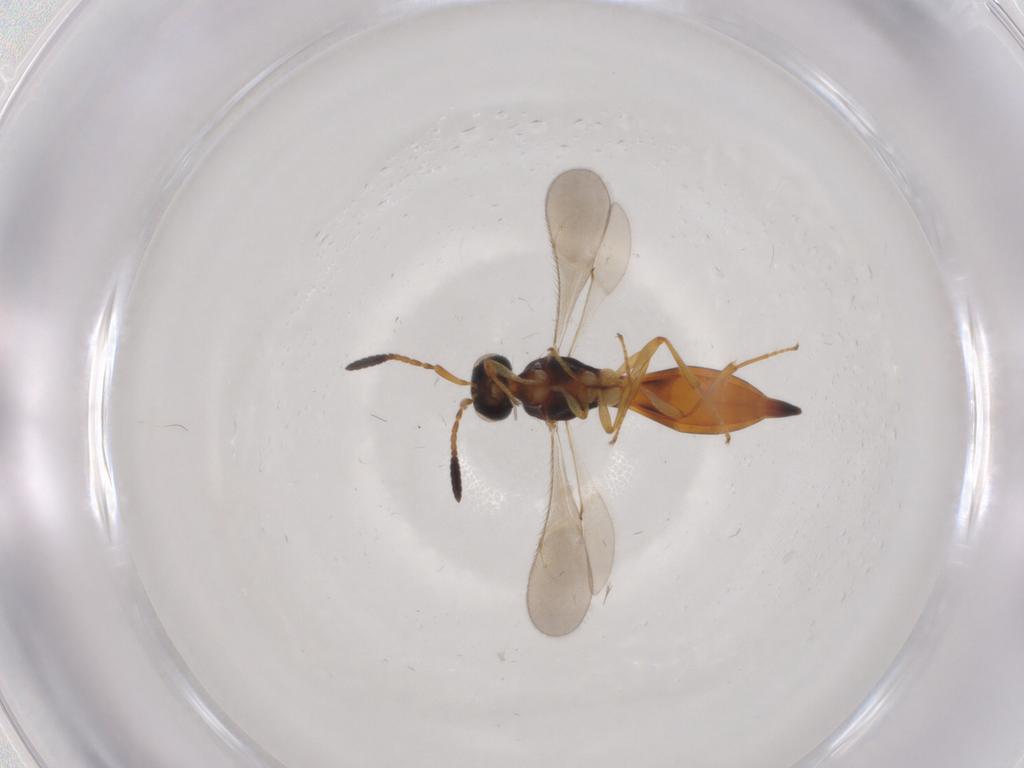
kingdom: Animalia
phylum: Arthropoda
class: Insecta
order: Hymenoptera
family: Scelionidae
